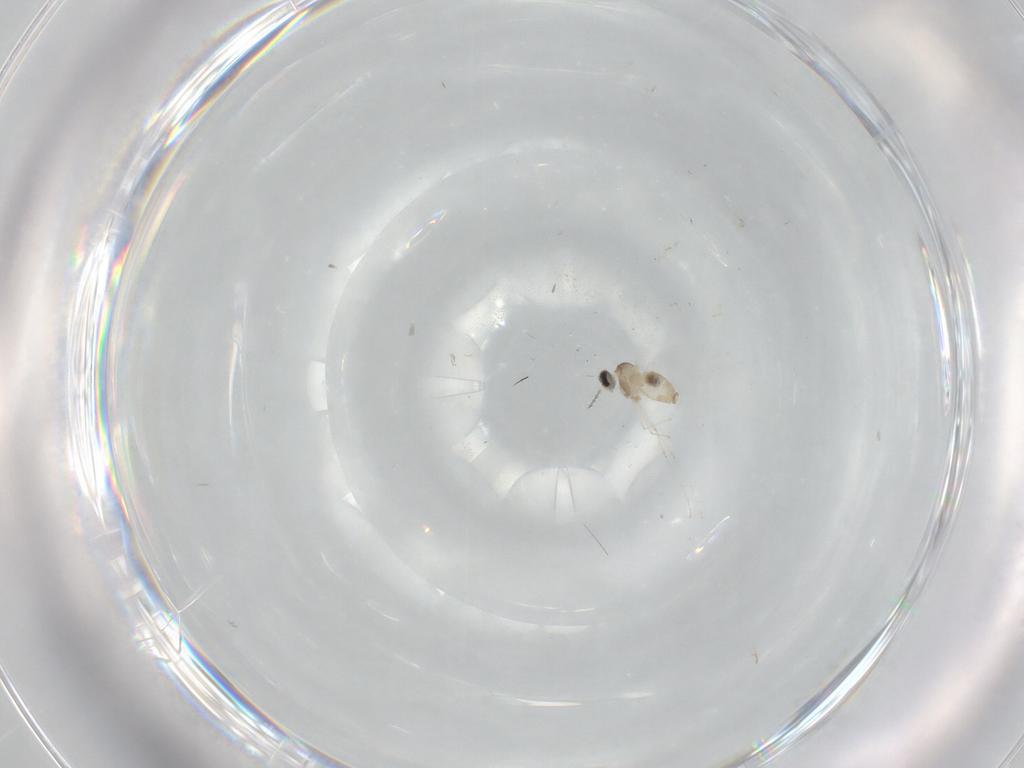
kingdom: Animalia
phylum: Arthropoda
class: Insecta
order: Diptera
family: Cecidomyiidae
